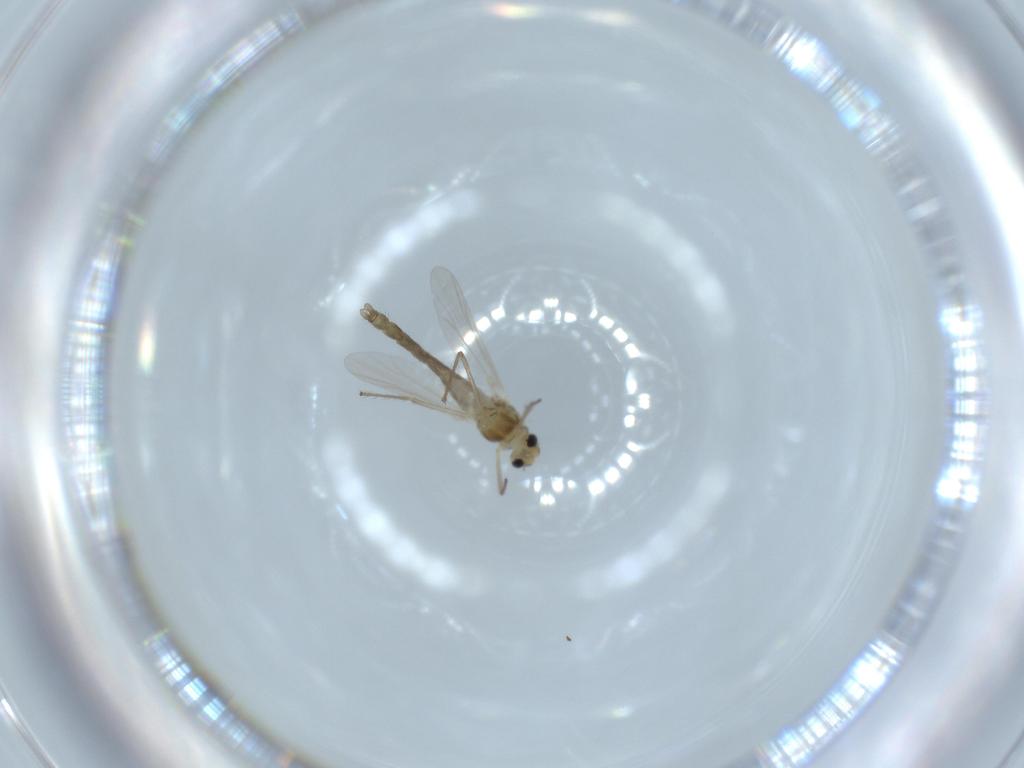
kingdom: Animalia
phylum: Arthropoda
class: Insecta
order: Diptera
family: Chironomidae
